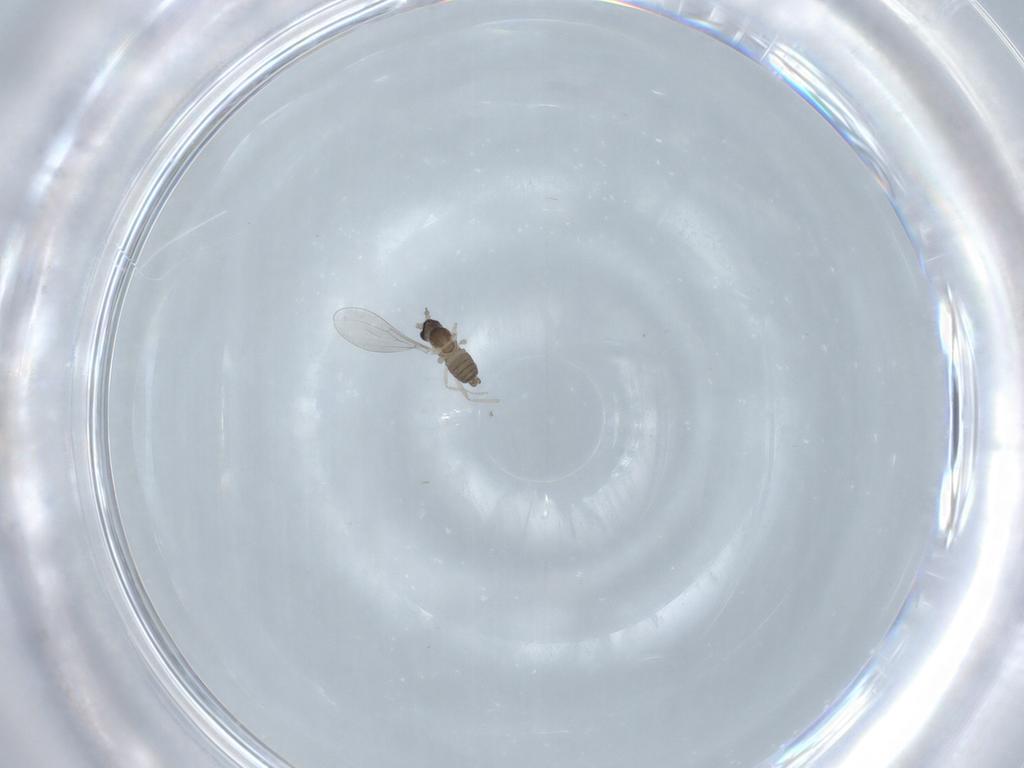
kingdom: Animalia
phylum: Arthropoda
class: Insecta
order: Diptera
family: Cecidomyiidae
